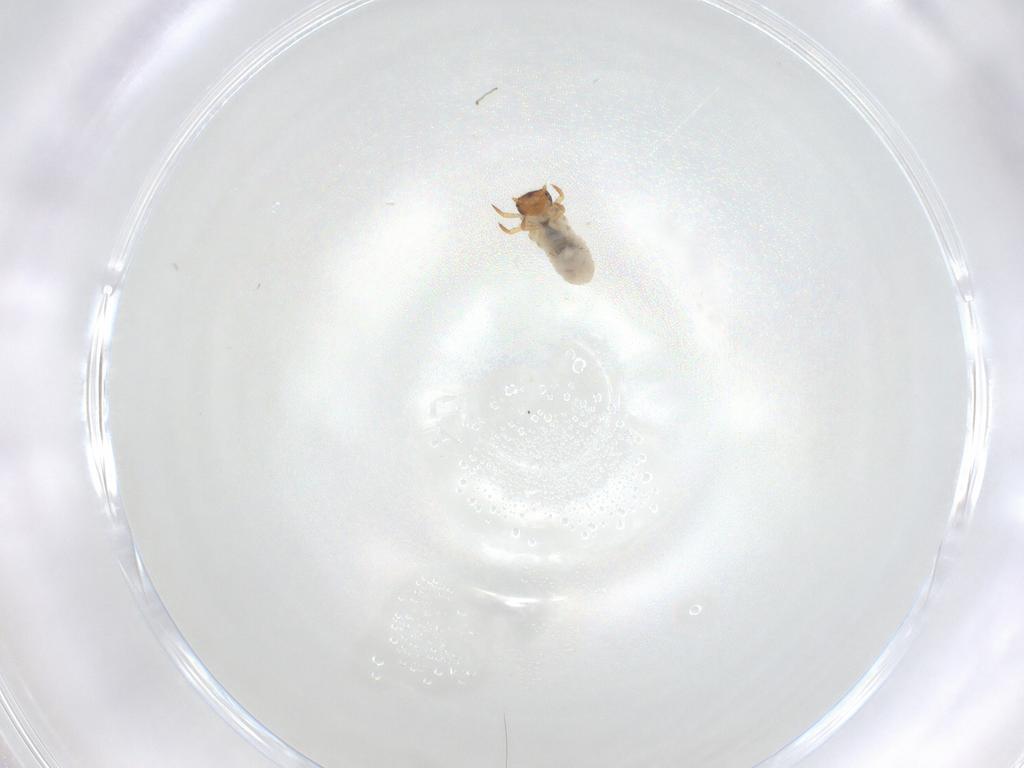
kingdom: Animalia
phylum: Arthropoda
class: Insecta
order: Coleoptera
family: Chrysomelidae
